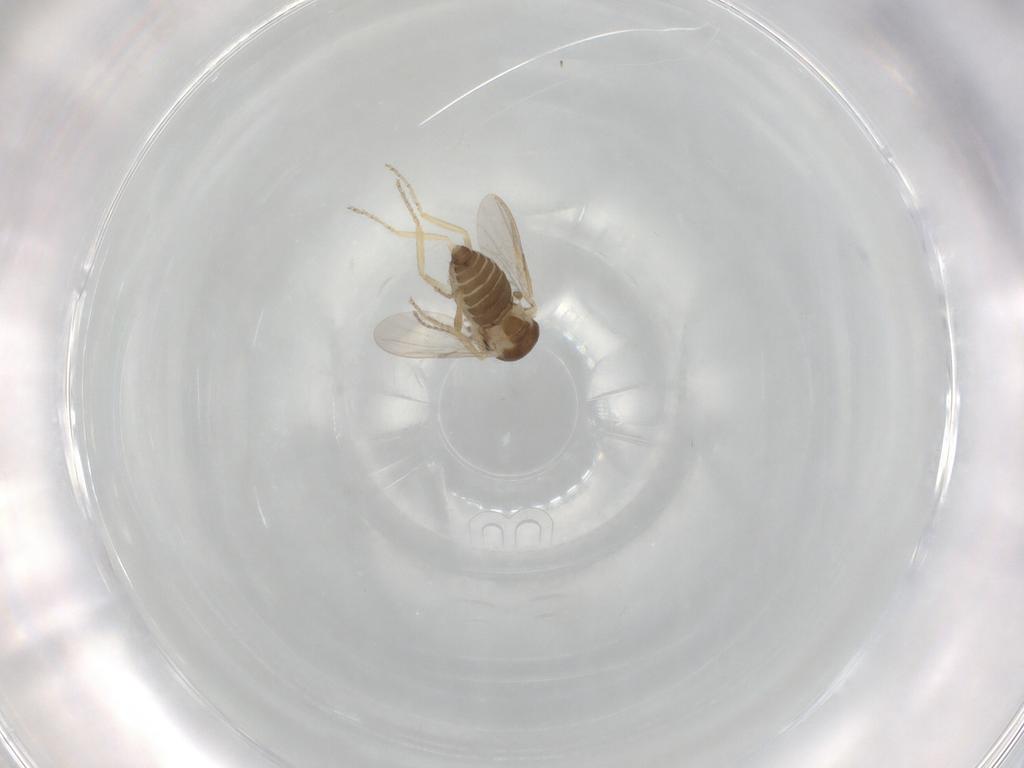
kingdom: Animalia
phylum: Arthropoda
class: Insecta
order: Diptera
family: Ceratopogonidae
